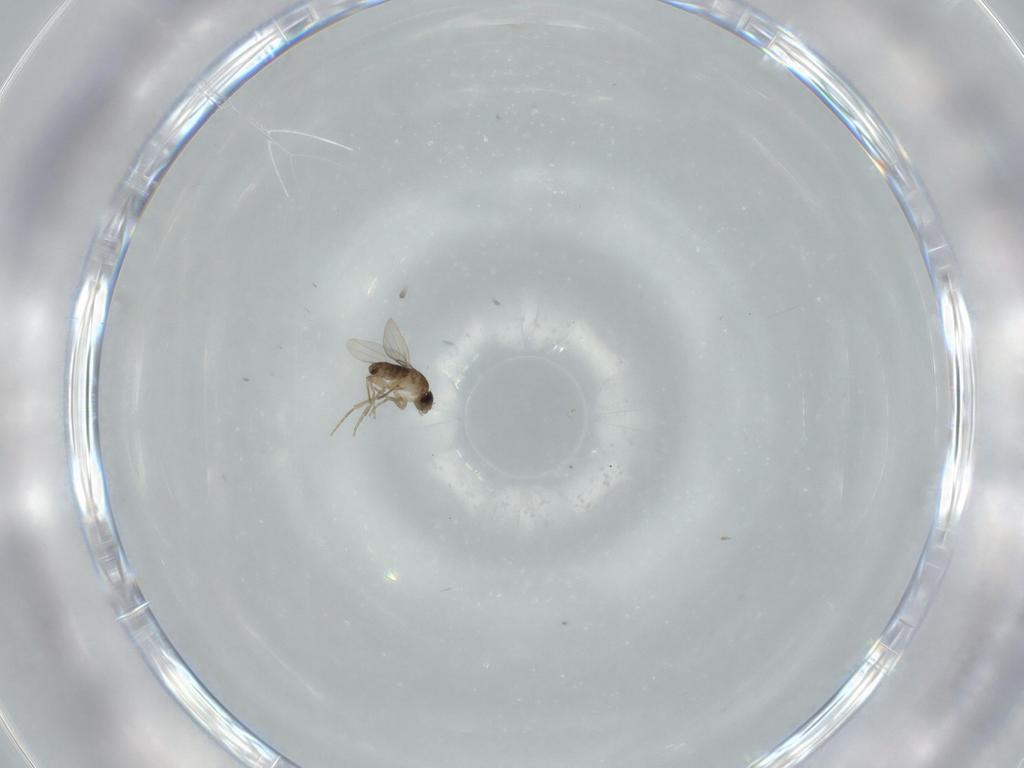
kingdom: Animalia
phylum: Arthropoda
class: Insecta
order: Diptera
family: Phoridae
